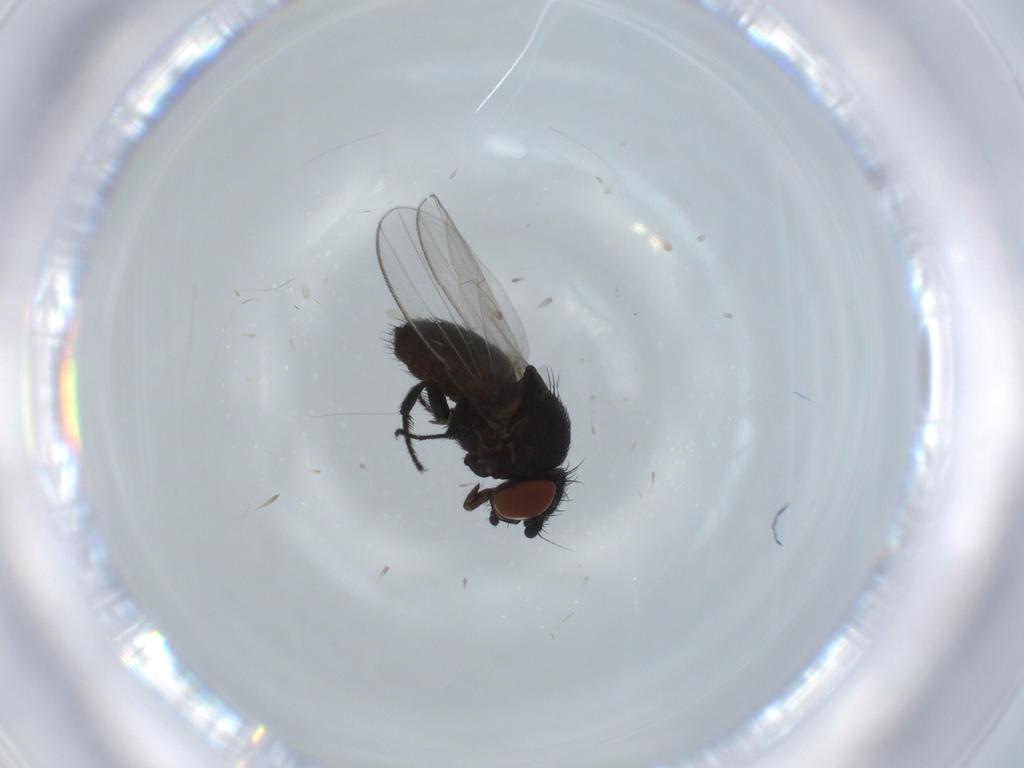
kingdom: Animalia
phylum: Arthropoda
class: Insecta
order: Diptera
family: Milichiidae
